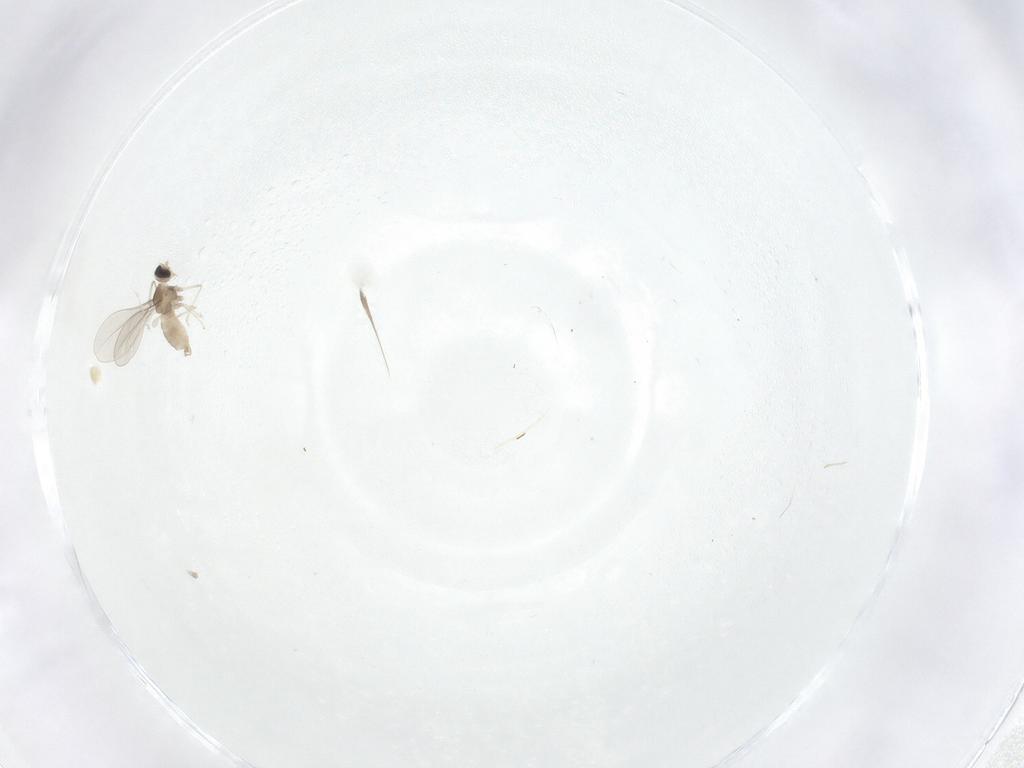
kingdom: Animalia
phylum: Arthropoda
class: Insecta
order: Diptera
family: Cecidomyiidae
